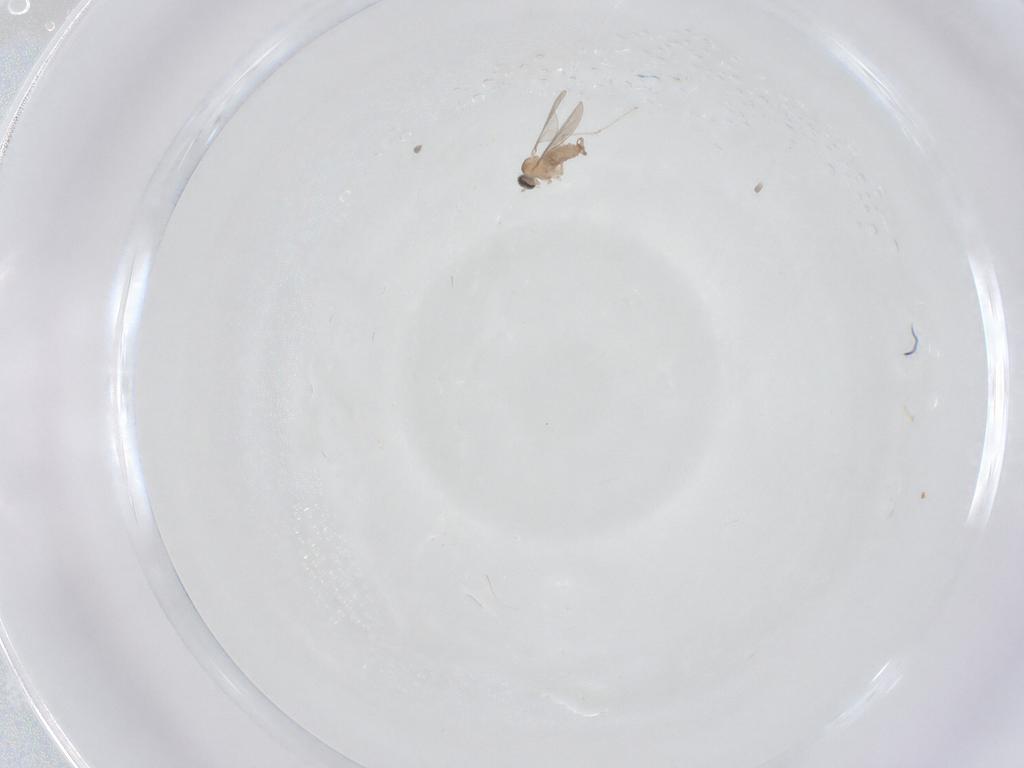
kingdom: Animalia
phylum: Arthropoda
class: Insecta
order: Diptera
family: Cecidomyiidae
